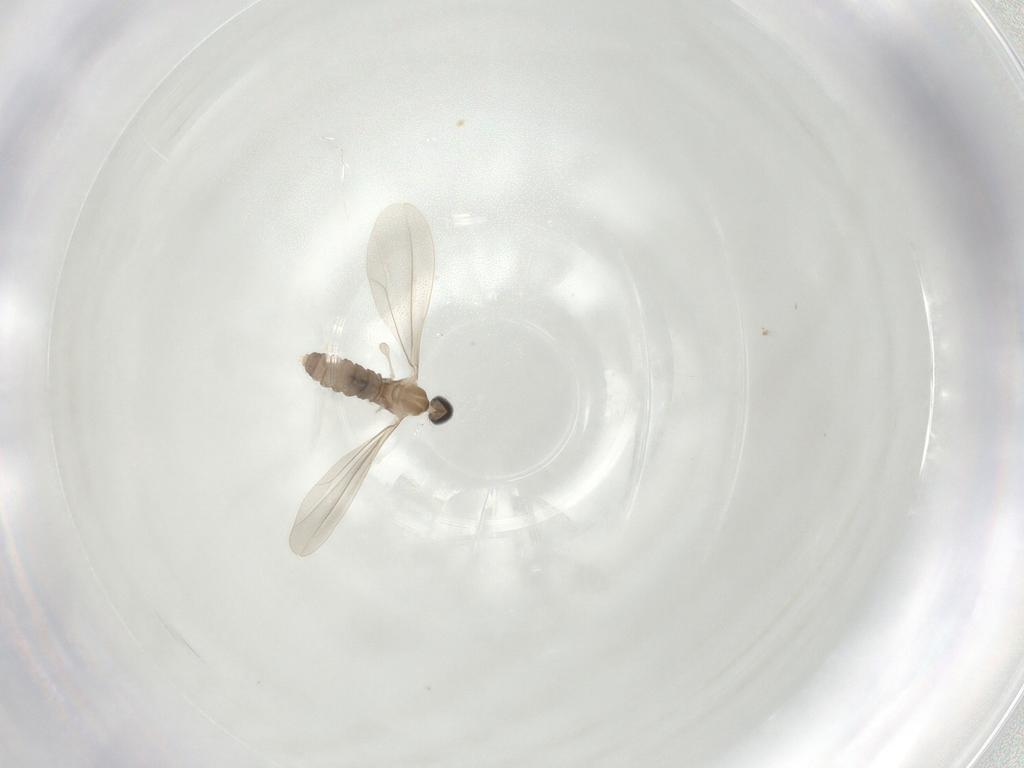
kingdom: Animalia
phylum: Arthropoda
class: Insecta
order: Diptera
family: Cecidomyiidae
